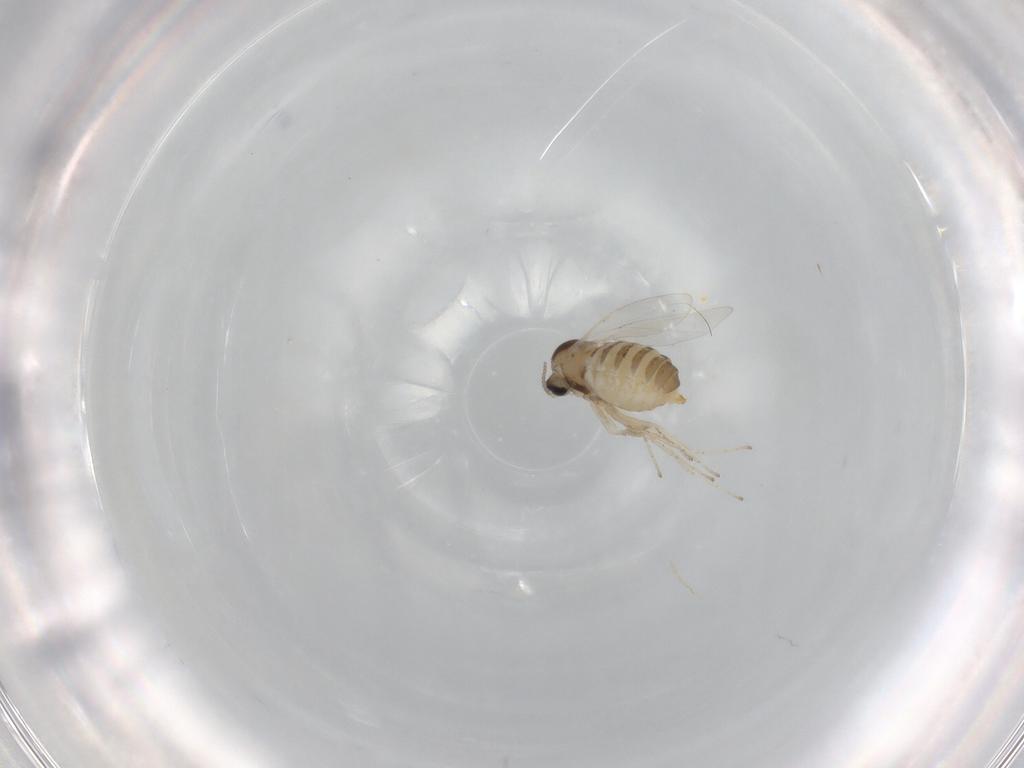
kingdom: Animalia
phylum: Arthropoda
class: Insecta
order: Diptera
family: Cecidomyiidae
